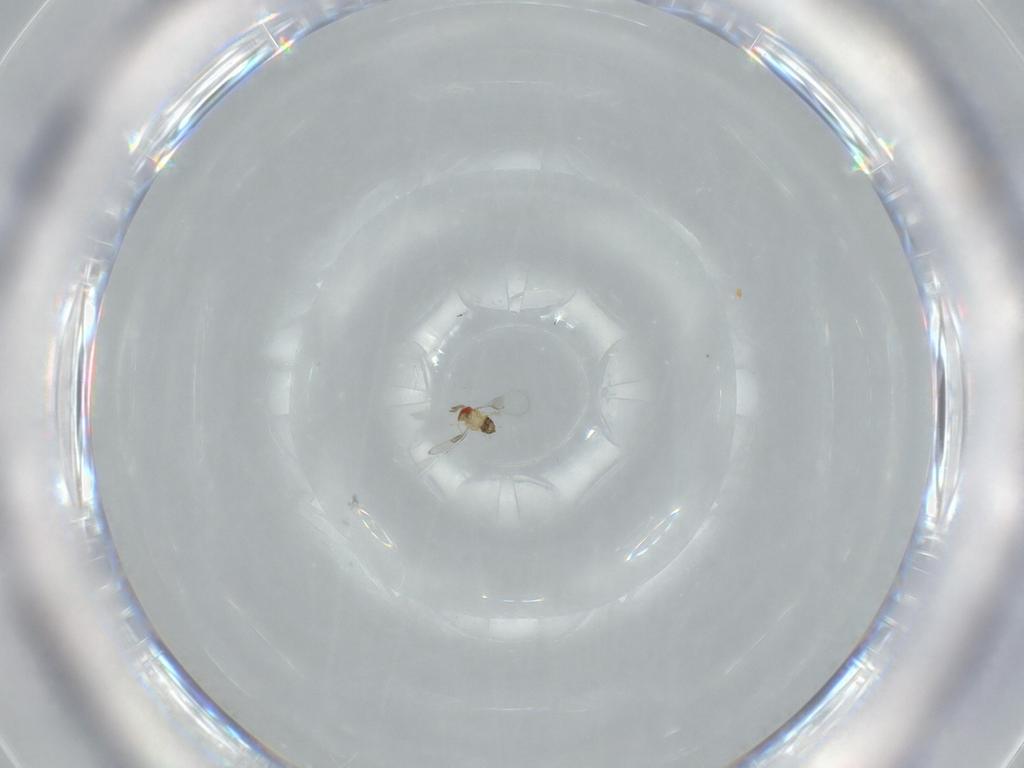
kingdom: Animalia
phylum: Arthropoda
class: Insecta
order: Hymenoptera
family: Trichogrammatidae
